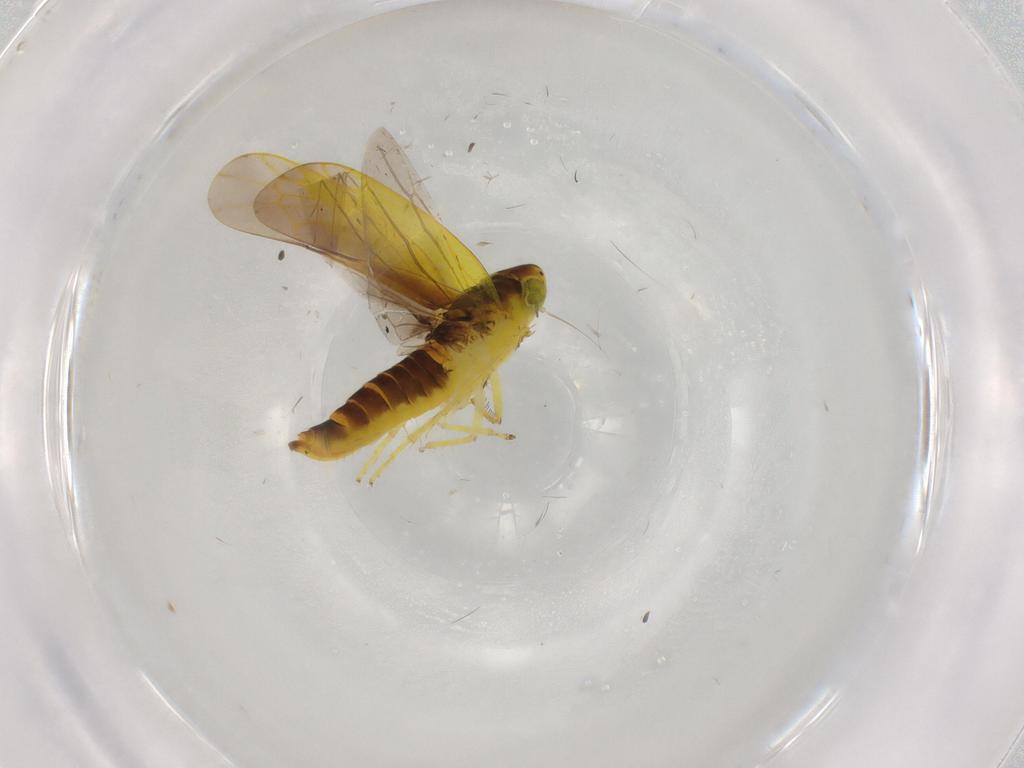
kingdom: Animalia
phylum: Arthropoda
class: Insecta
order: Hemiptera
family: Cicadellidae
